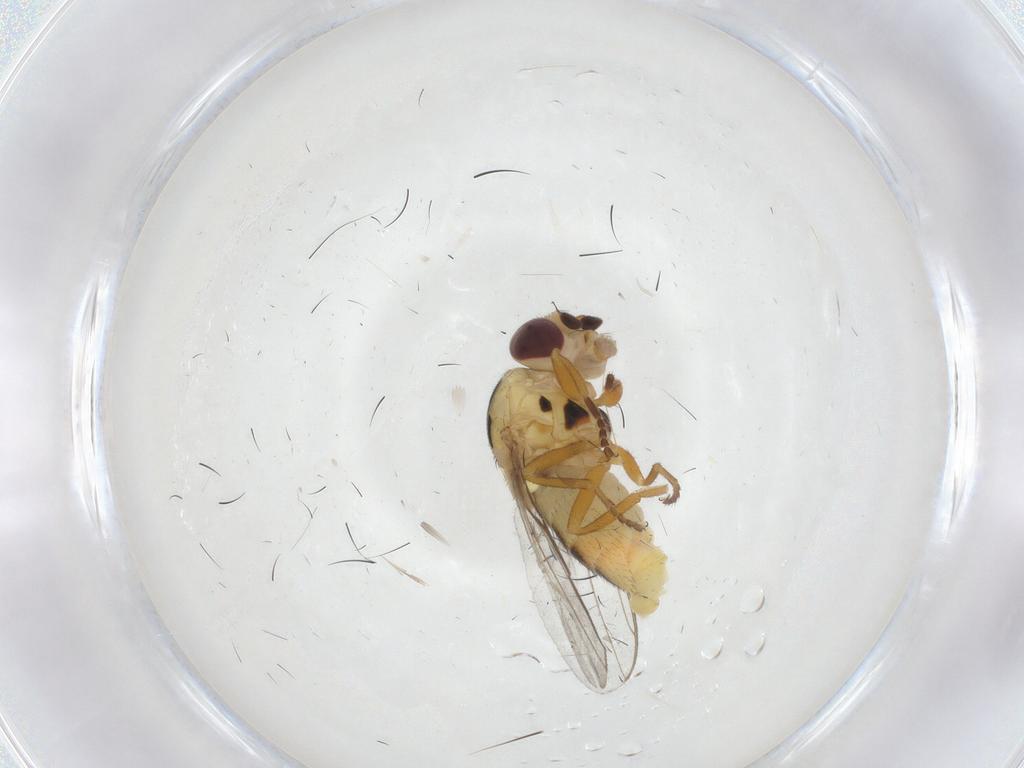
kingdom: Animalia
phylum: Arthropoda
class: Insecta
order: Diptera
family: Chloropidae
